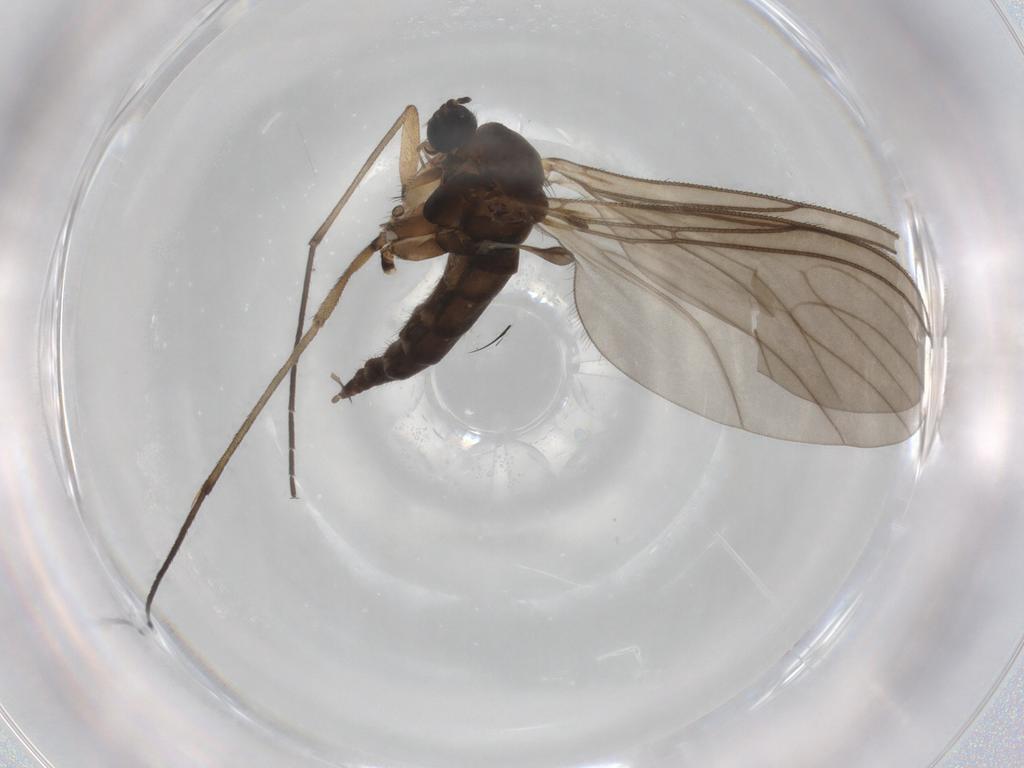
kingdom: Animalia
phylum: Arthropoda
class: Insecta
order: Diptera
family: Sciaridae
